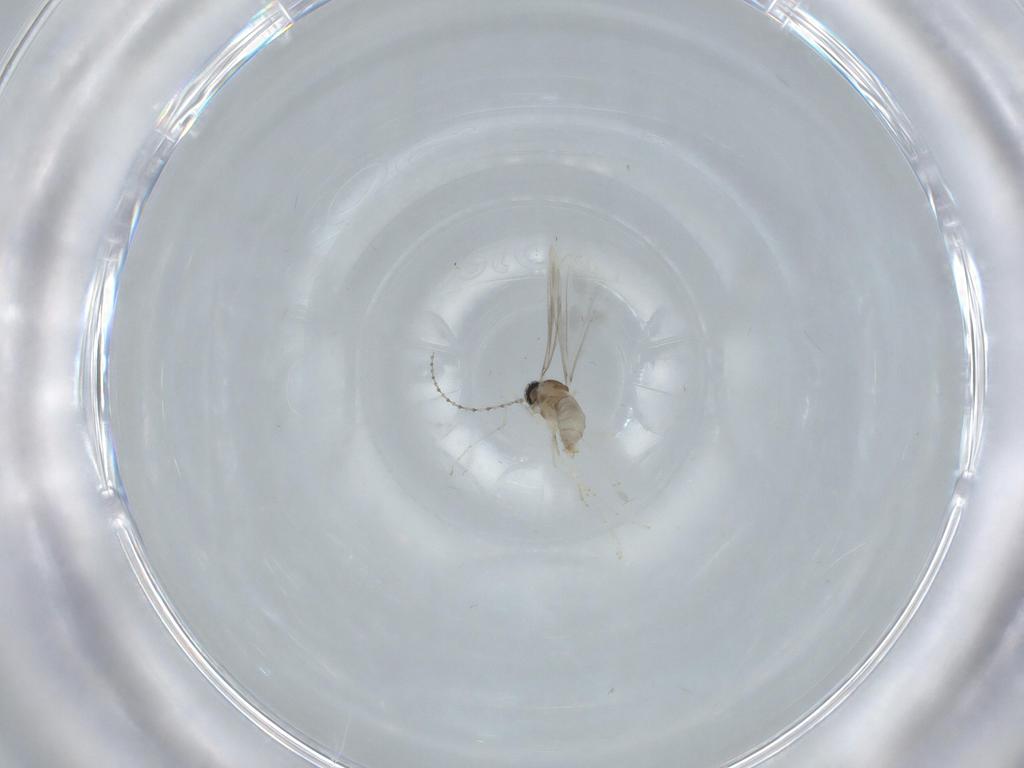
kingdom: Animalia
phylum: Arthropoda
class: Insecta
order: Diptera
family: Cecidomyiidae
